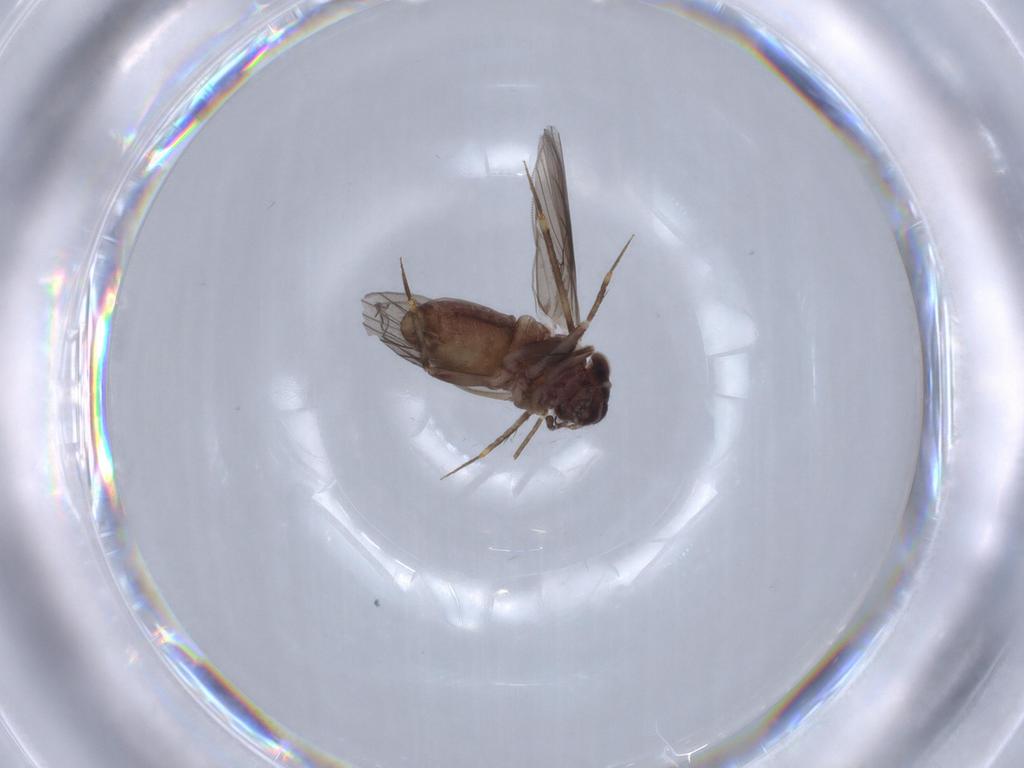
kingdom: Animalia
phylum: Arthropoda
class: Insecta
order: Psocodea
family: Lepidopsocidae
